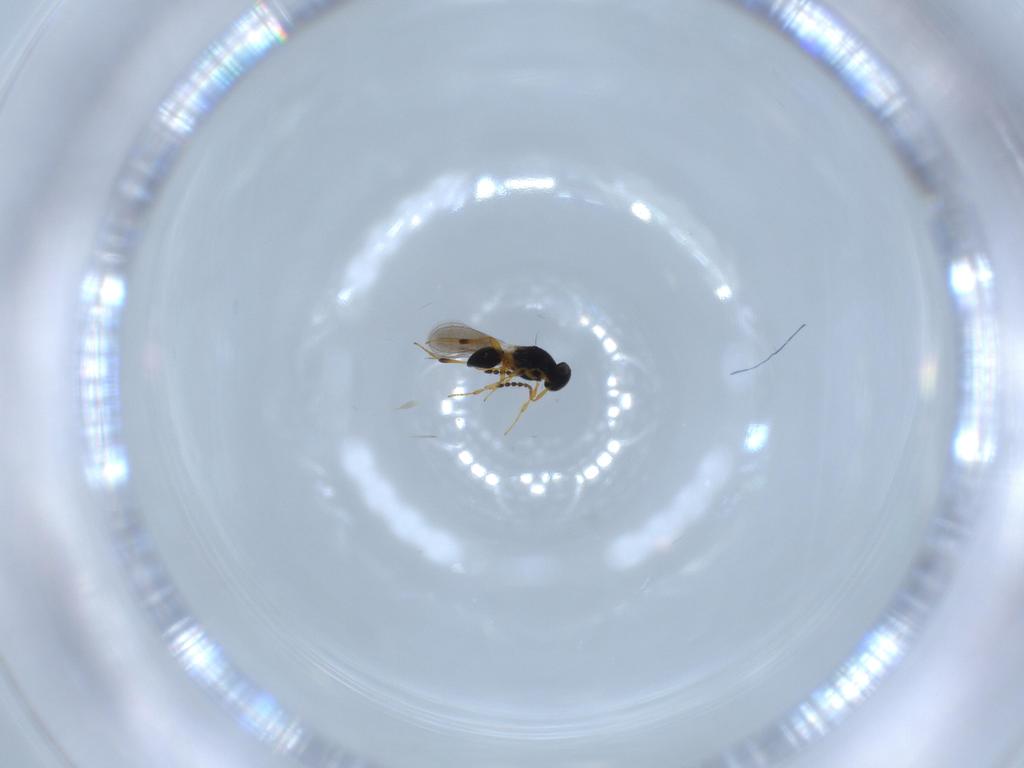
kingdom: Animalia
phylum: Arthropoda
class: Insecta
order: Hymenoptera
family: Platygastridae
